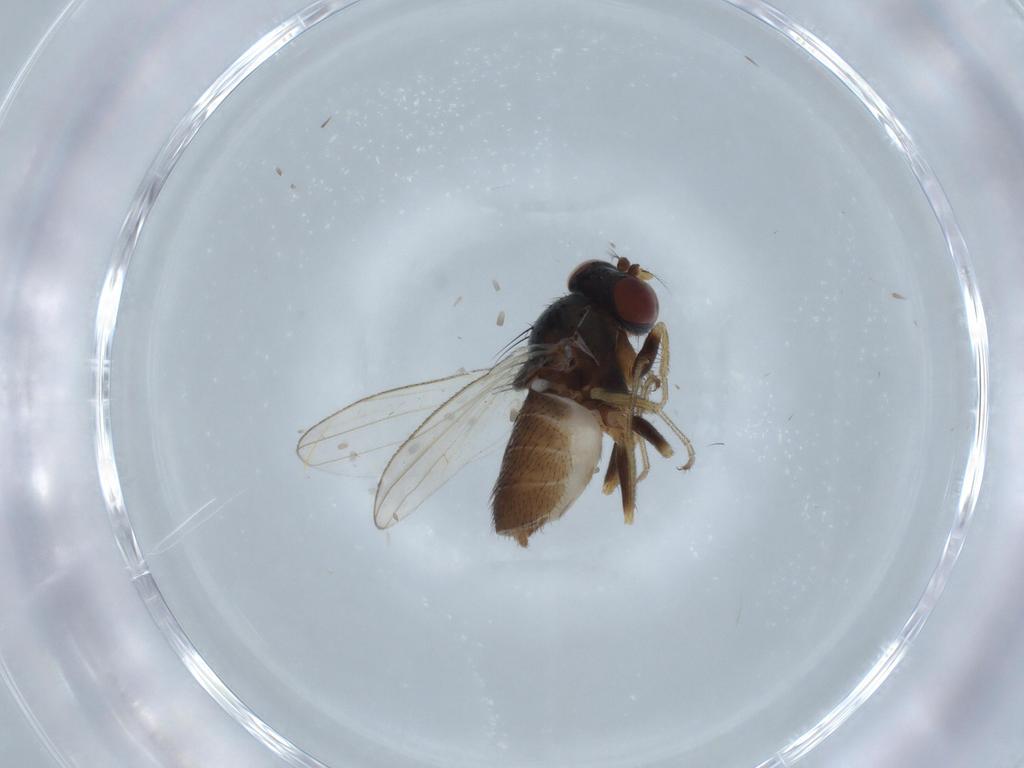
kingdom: Animalia
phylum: Arthropoda
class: Insecta
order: Diptera
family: Ephydridae
